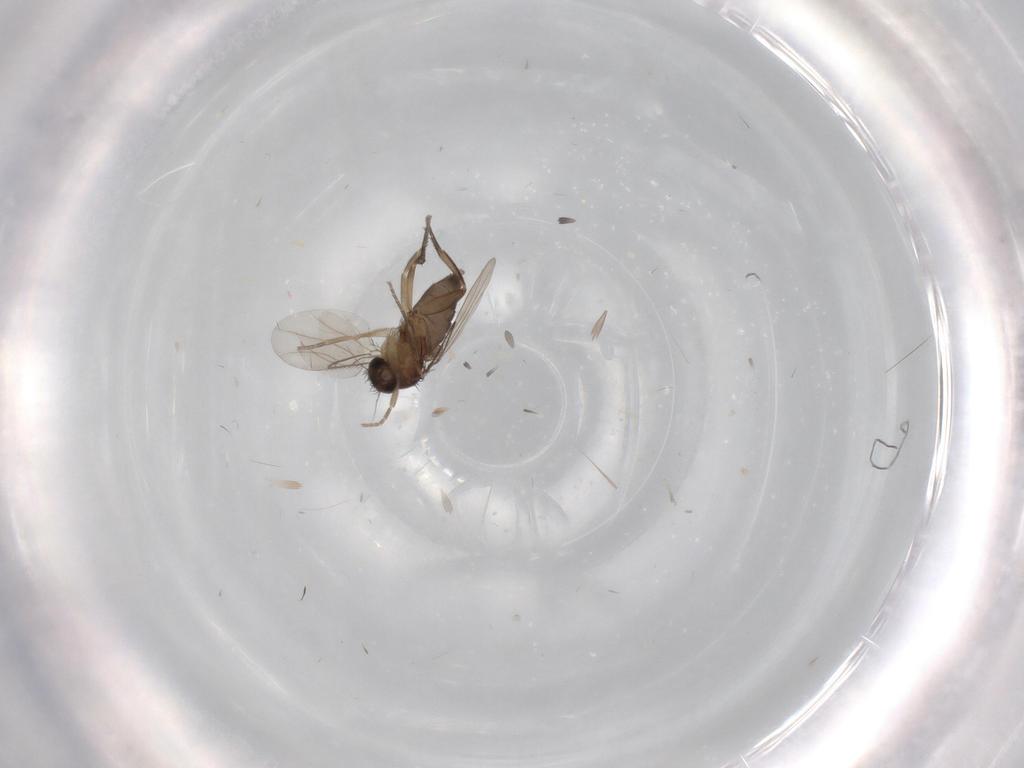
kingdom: Animalia
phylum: Arthropoda
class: Insecta
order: Diptera
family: Phoridae
